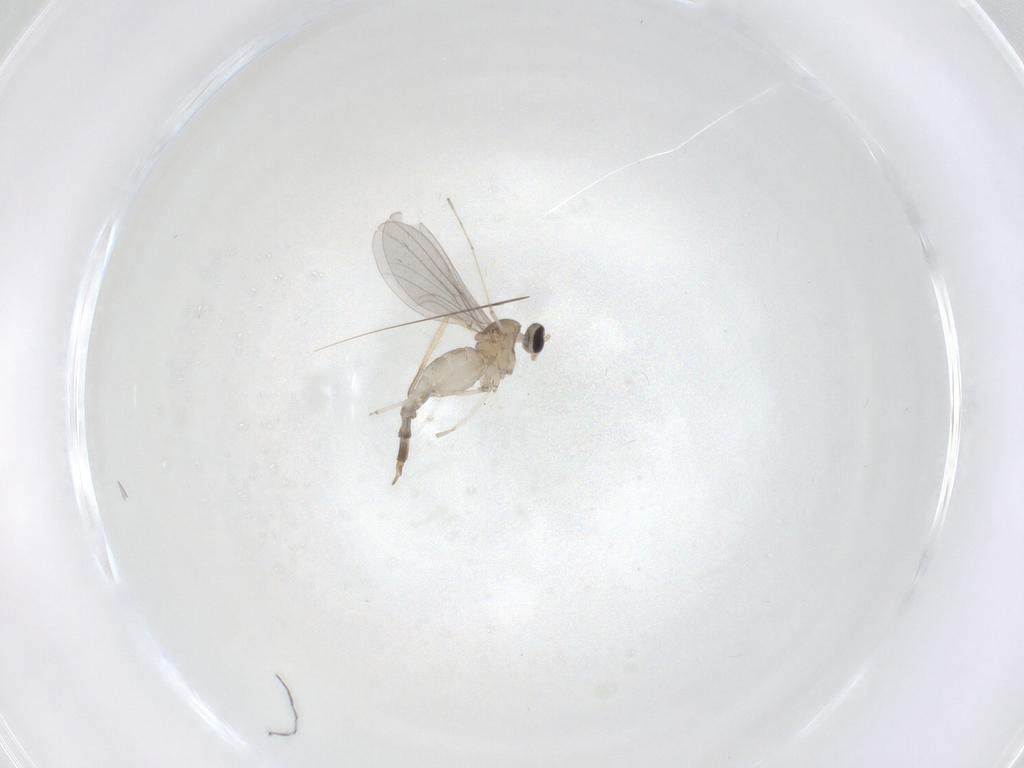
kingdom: Animalia
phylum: Arthropoda
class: Insecta
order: Diptera
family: Cecidomyiidae
